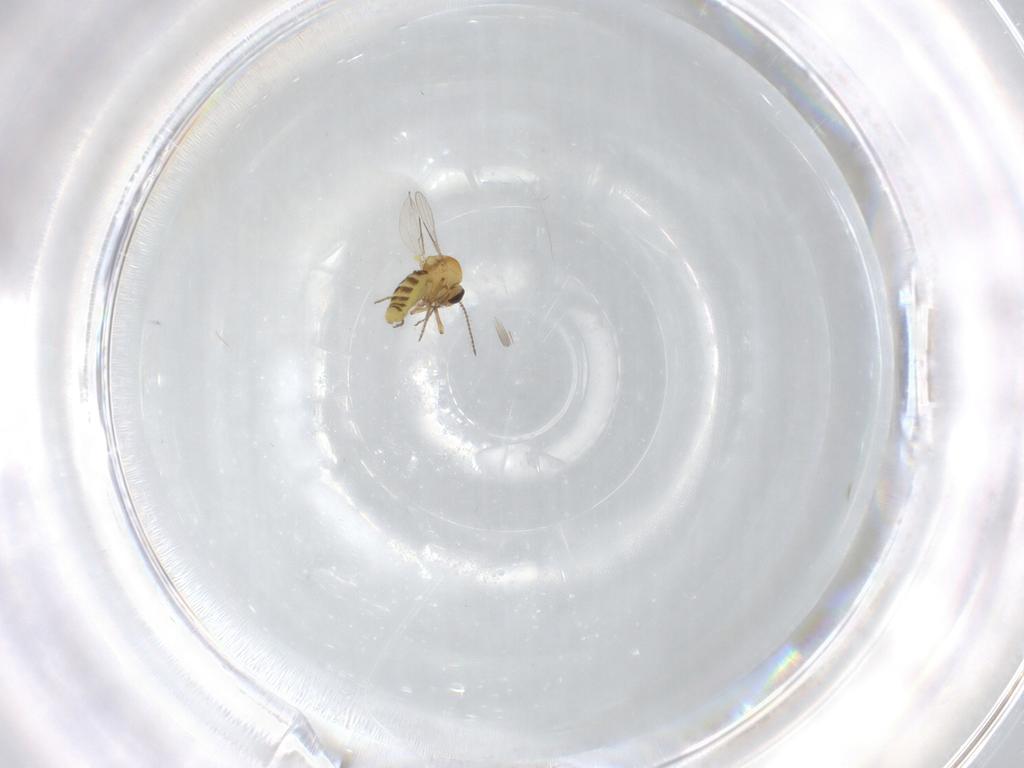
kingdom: Animalia
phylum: Arthropoda
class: Insecta
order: Diptera
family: Ceratopogonidae
